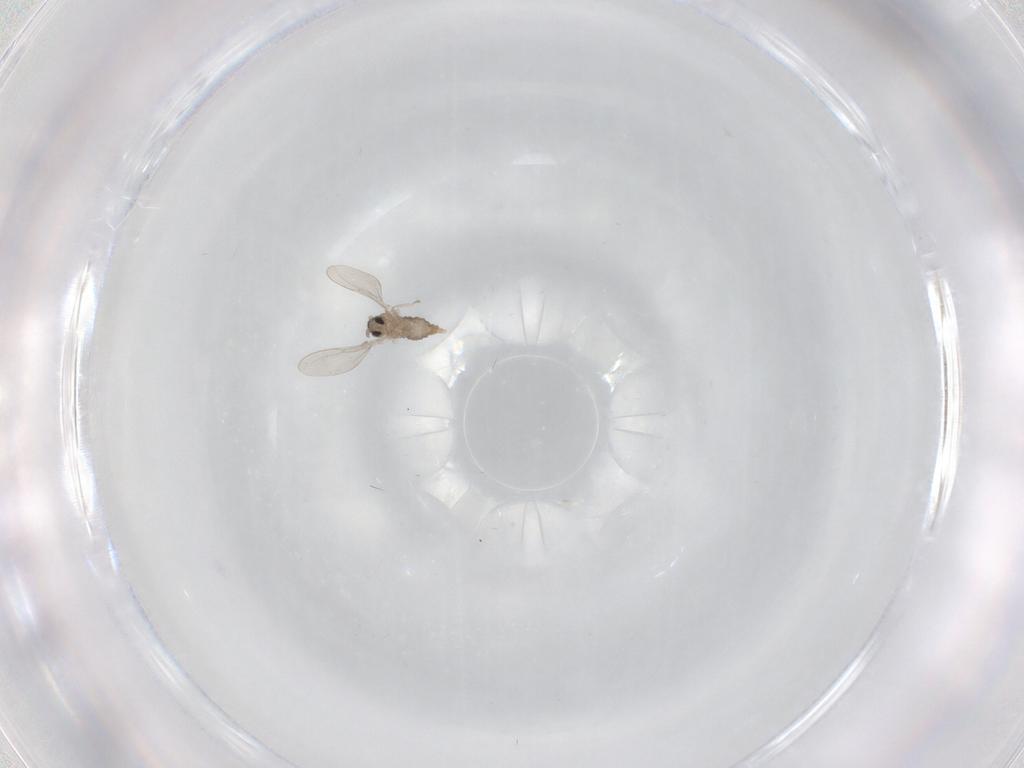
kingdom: Animalia
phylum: Arthropoda
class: Insecta
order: Diptera
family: Cecidomyiidae
